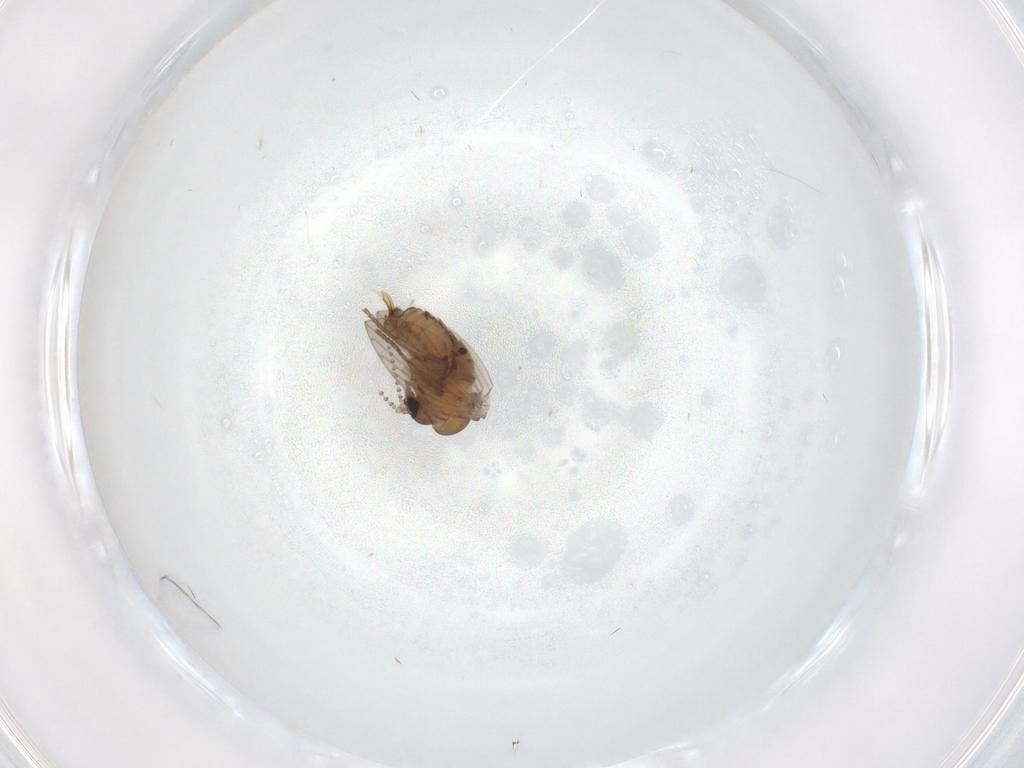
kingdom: Animalia
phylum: Arthropoda
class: Insecta
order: Diptera
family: Psychodidae
